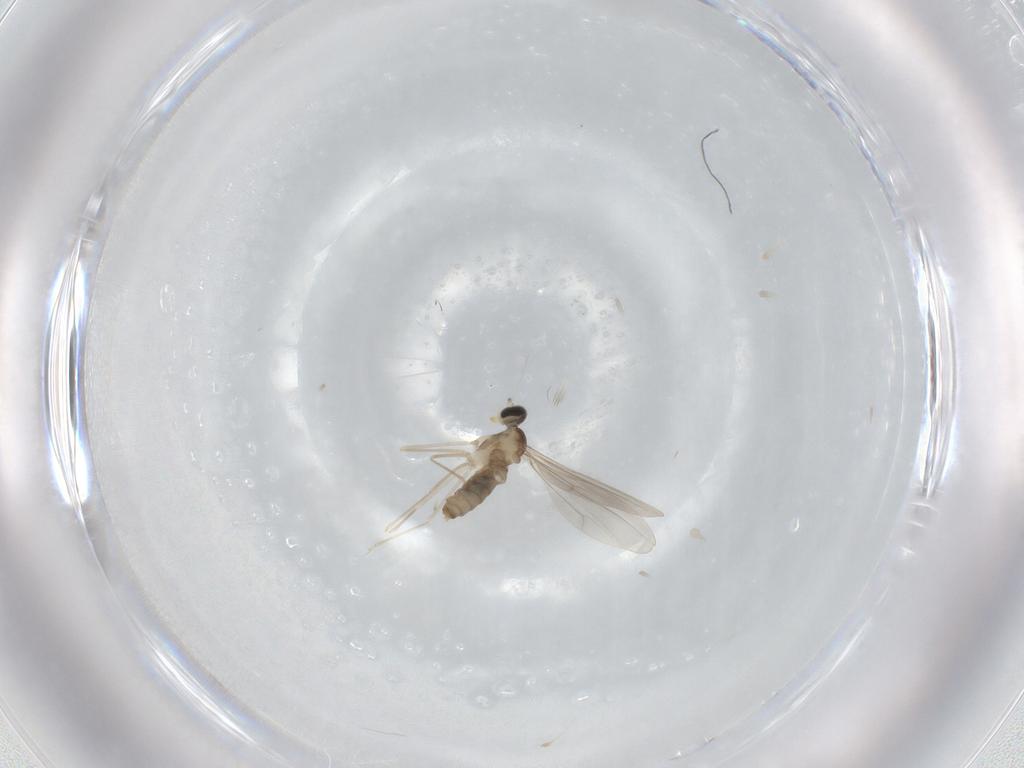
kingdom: Animalia
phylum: Arthropoda
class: Insecta
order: Diptera
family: Cecidomyiidae
